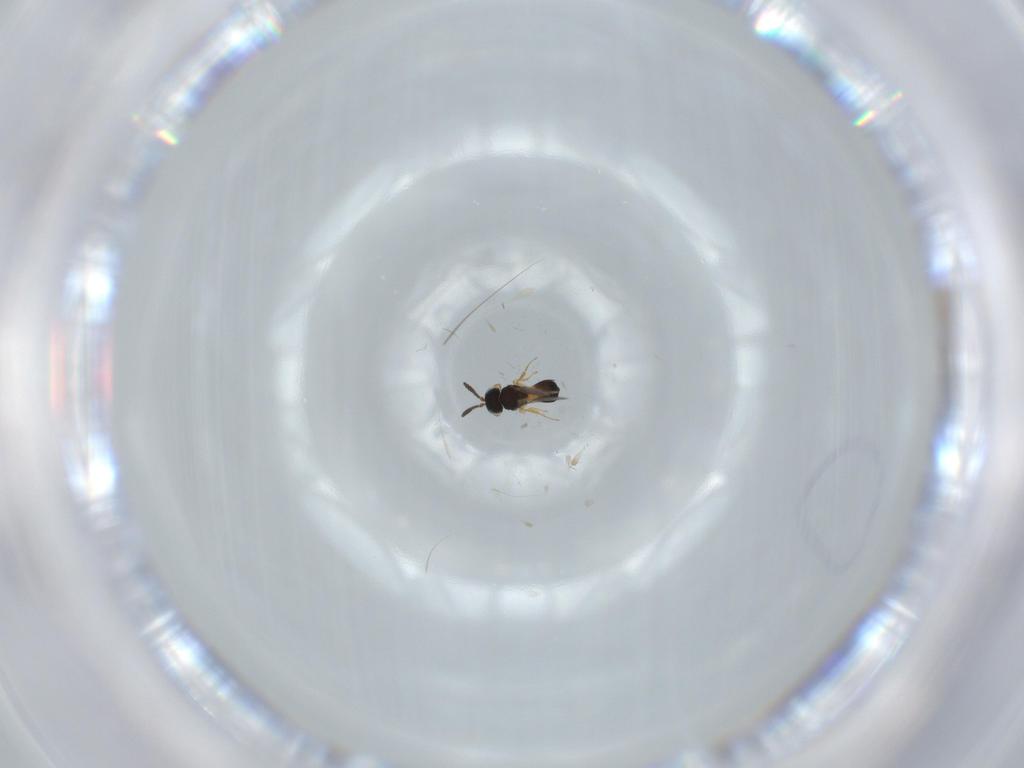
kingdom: Animalia
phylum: Arthropoda
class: Insecta
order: Hymenoptera
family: Scelionidae
